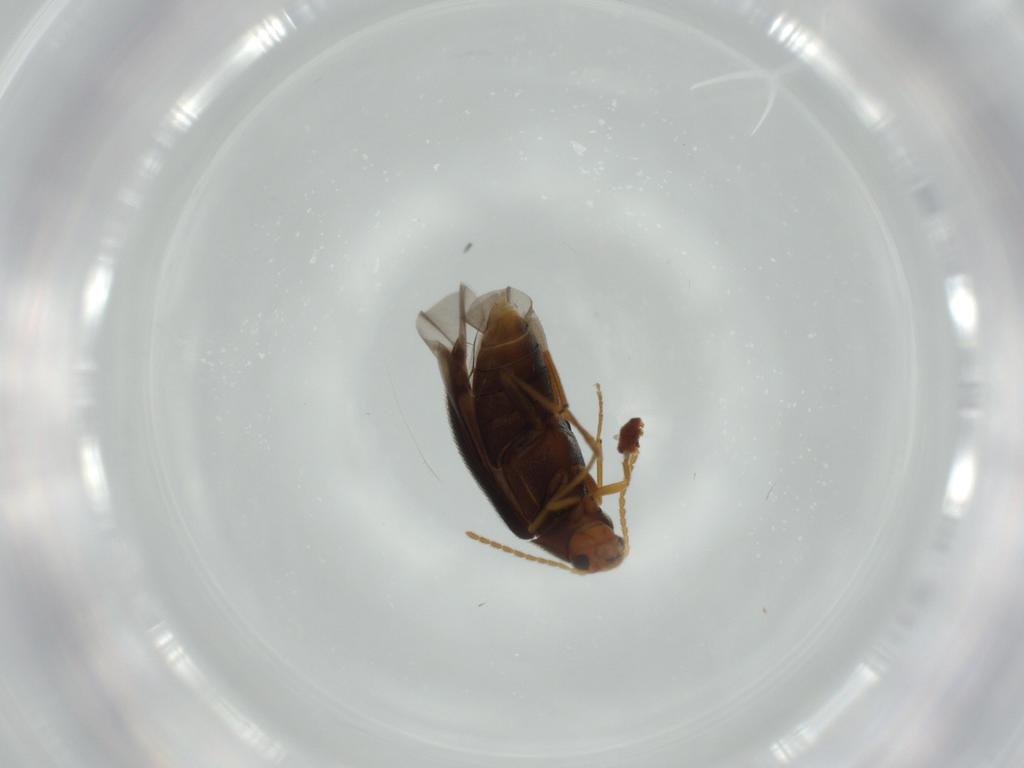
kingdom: Animalia
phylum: Arthropoda
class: Insecta
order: Coleoptera
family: Melandryidae
